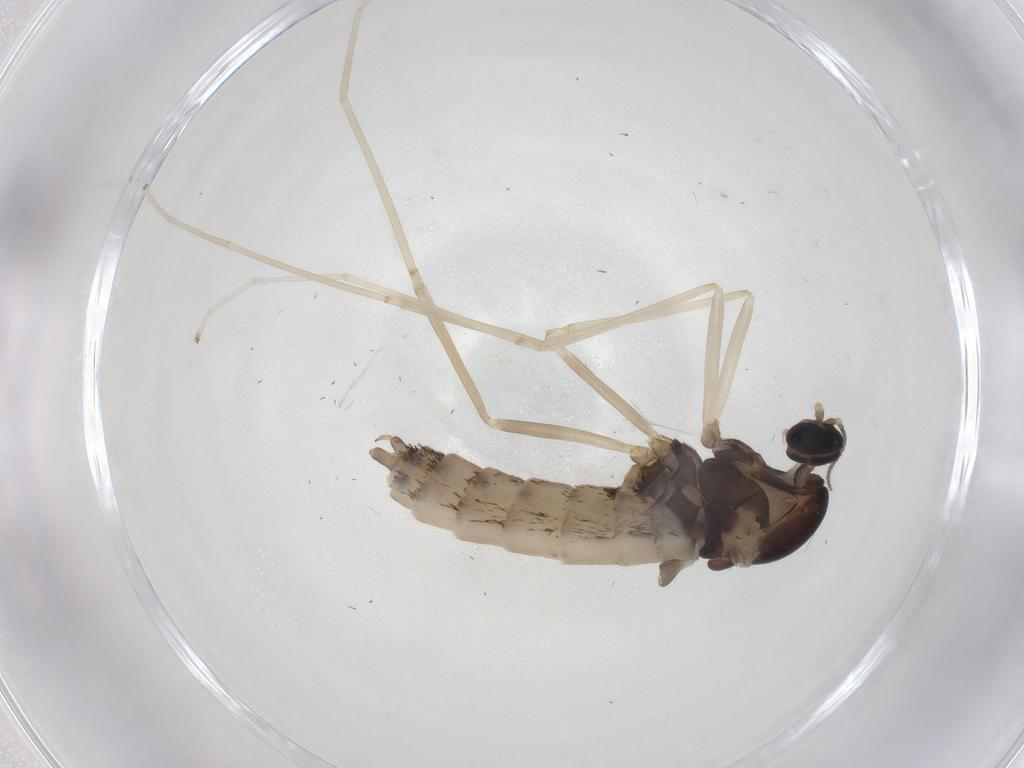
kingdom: Animalia
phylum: Arthropoda
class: Insecta
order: Diptera
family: Cecidomyiidae
